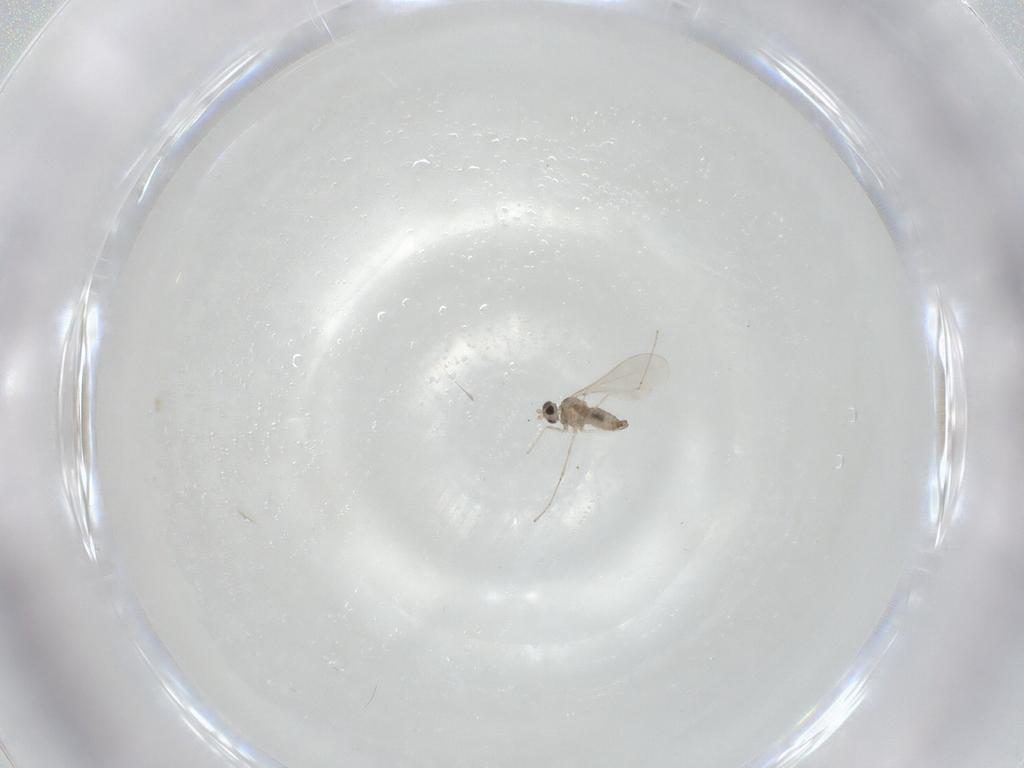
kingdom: Animalia
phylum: Arthropoda
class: Insecta
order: Diptera
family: Cecidomyiidae
